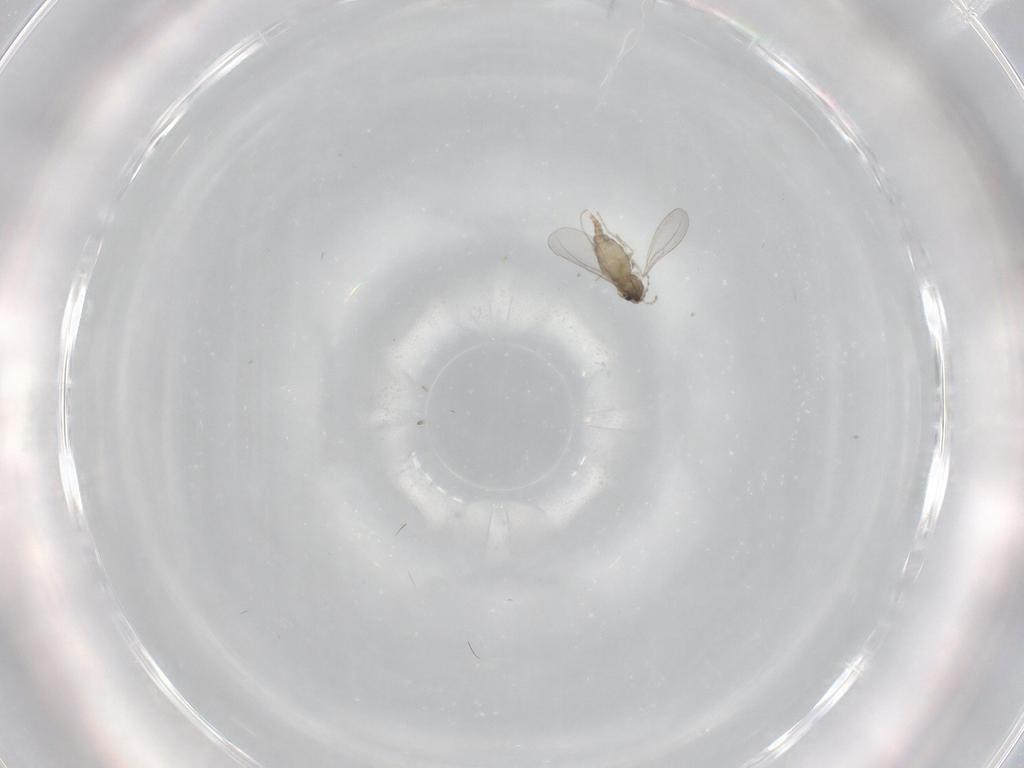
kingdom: Animalia
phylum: Arthropoda
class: Insecta
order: Diptera
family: Cecidomyiidae
